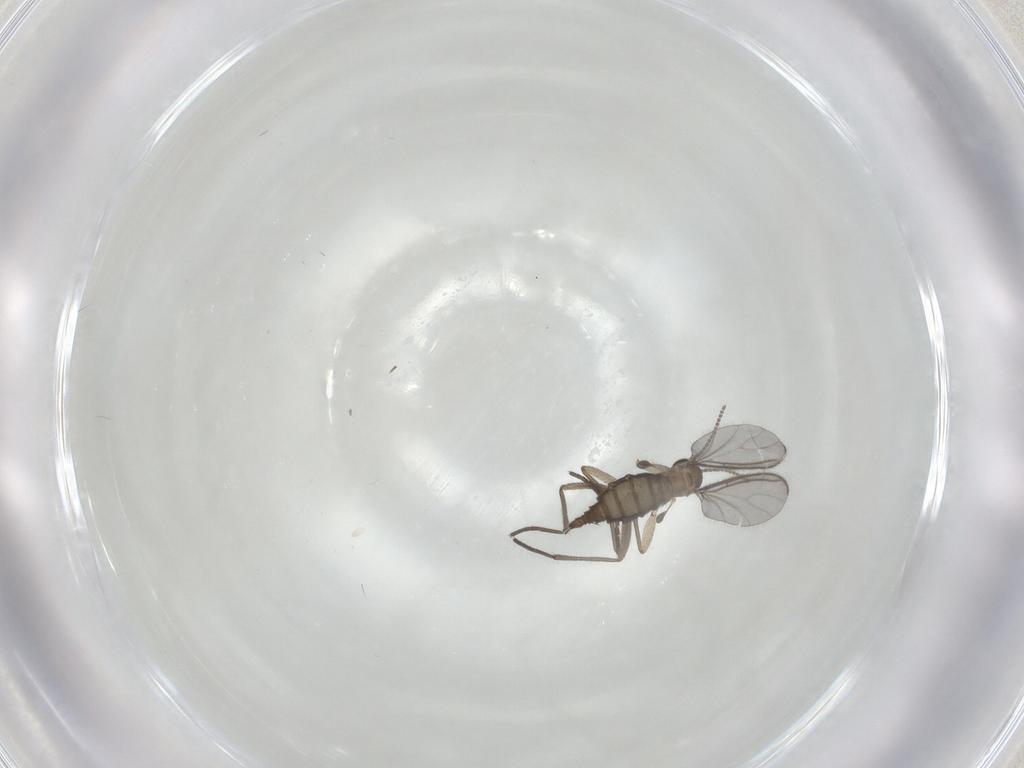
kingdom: Animalia
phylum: Arthropoda
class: Insecta
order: Diptera
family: Sciaridae
